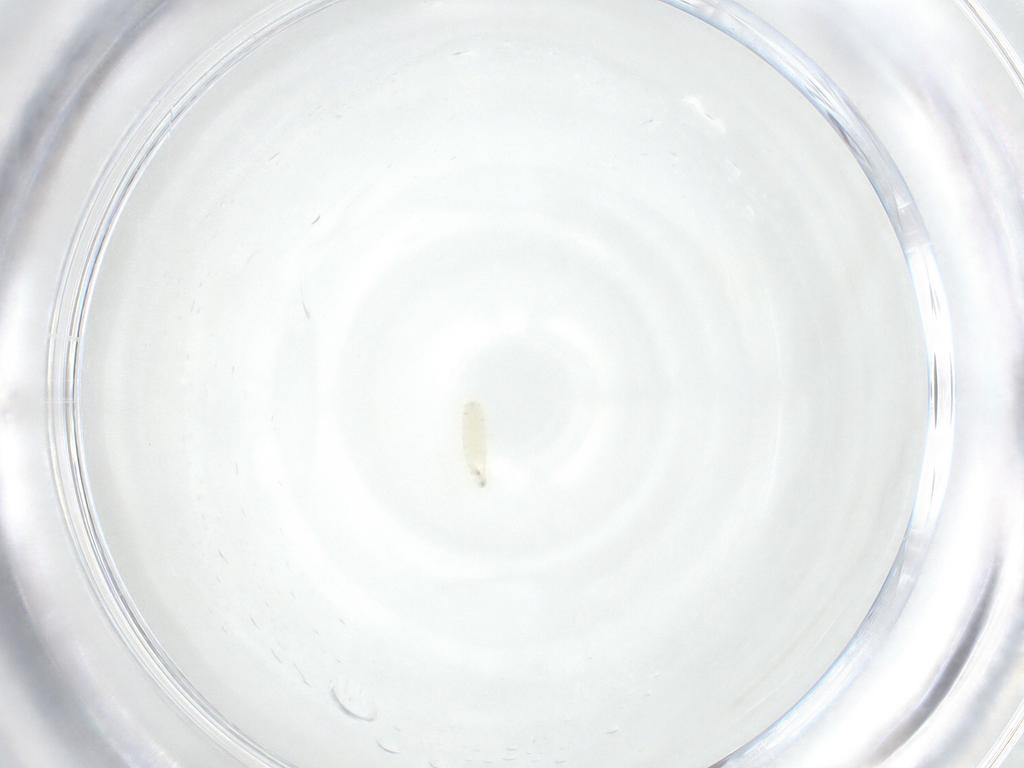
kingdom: Animalia
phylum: Arthropoda
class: Insecta
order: Diptera
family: Sarcophagidae
